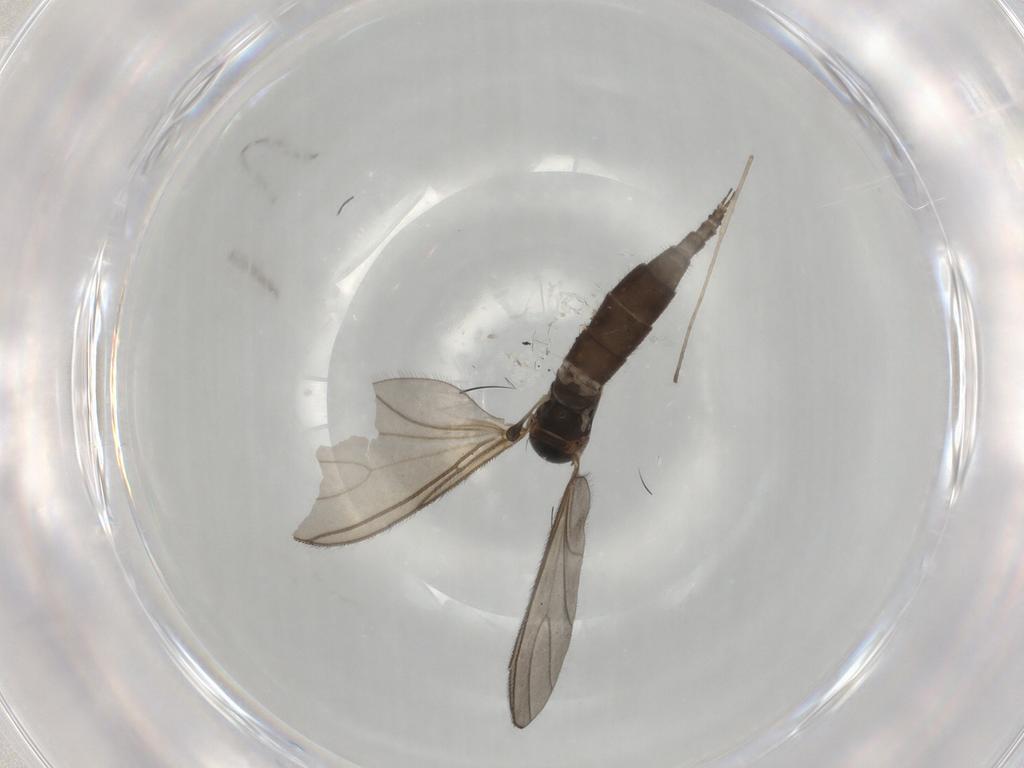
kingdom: Animalia
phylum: Arthropoda
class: Insecta
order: Diptera
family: Sciaridae
